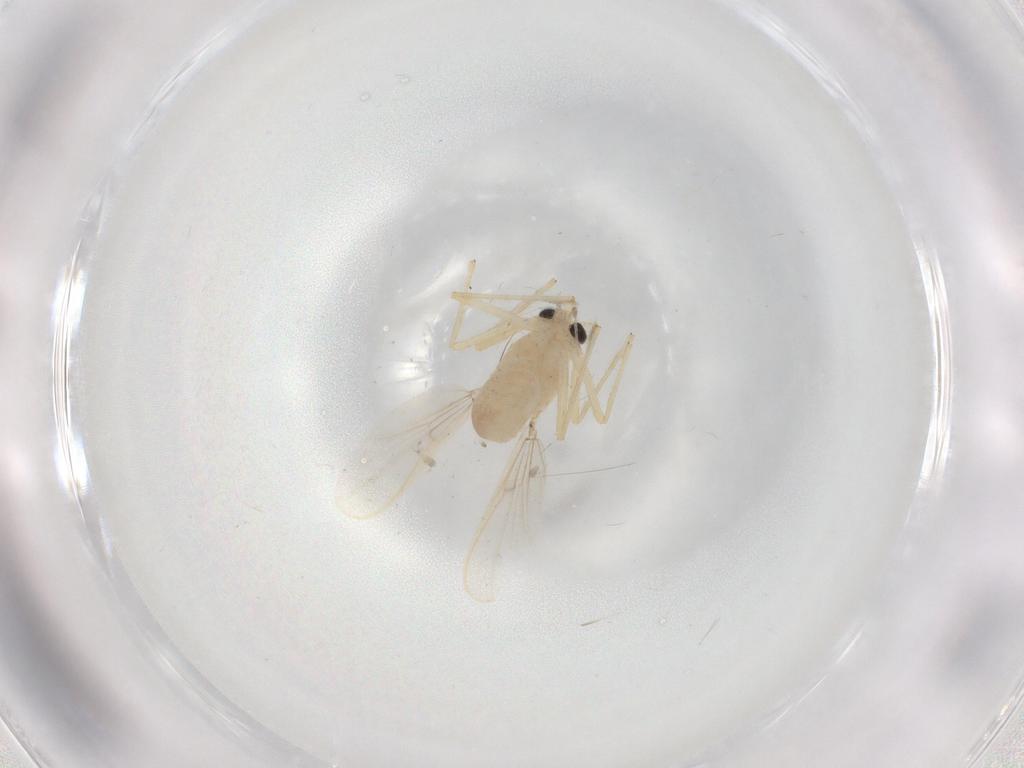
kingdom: Animalia
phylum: Arthropoda
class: Insecta
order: Diptera
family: Chironomidae
